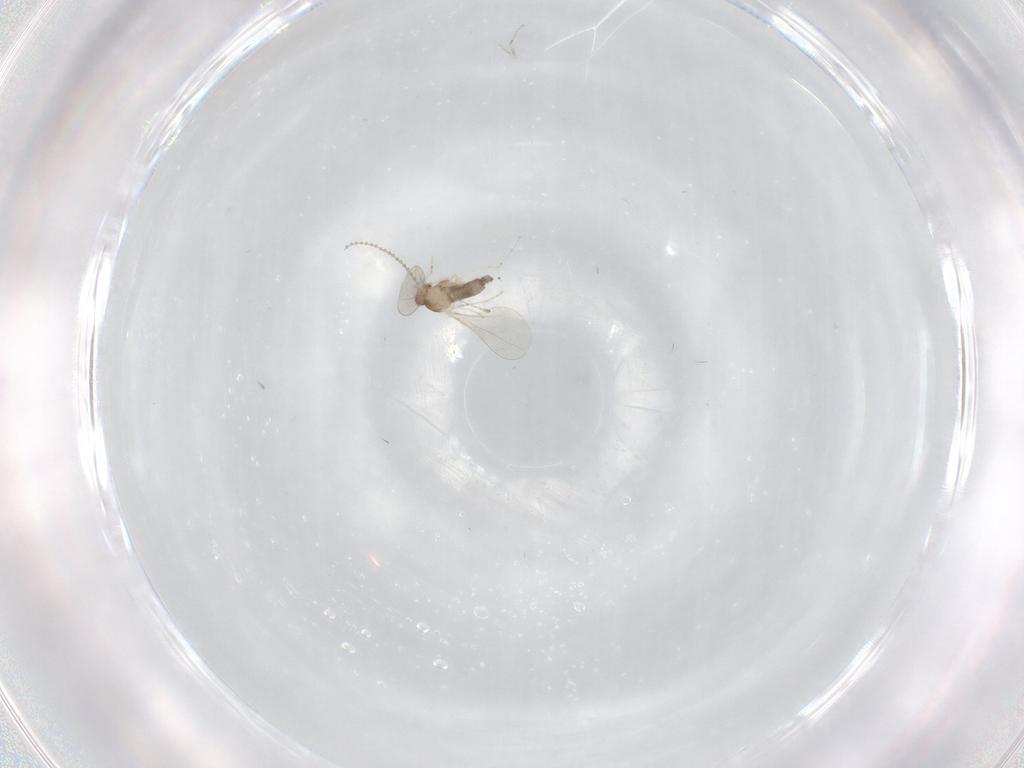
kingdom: Animalia
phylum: Arthropoda
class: Insecta
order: Diptera
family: Cecidomyiidae
